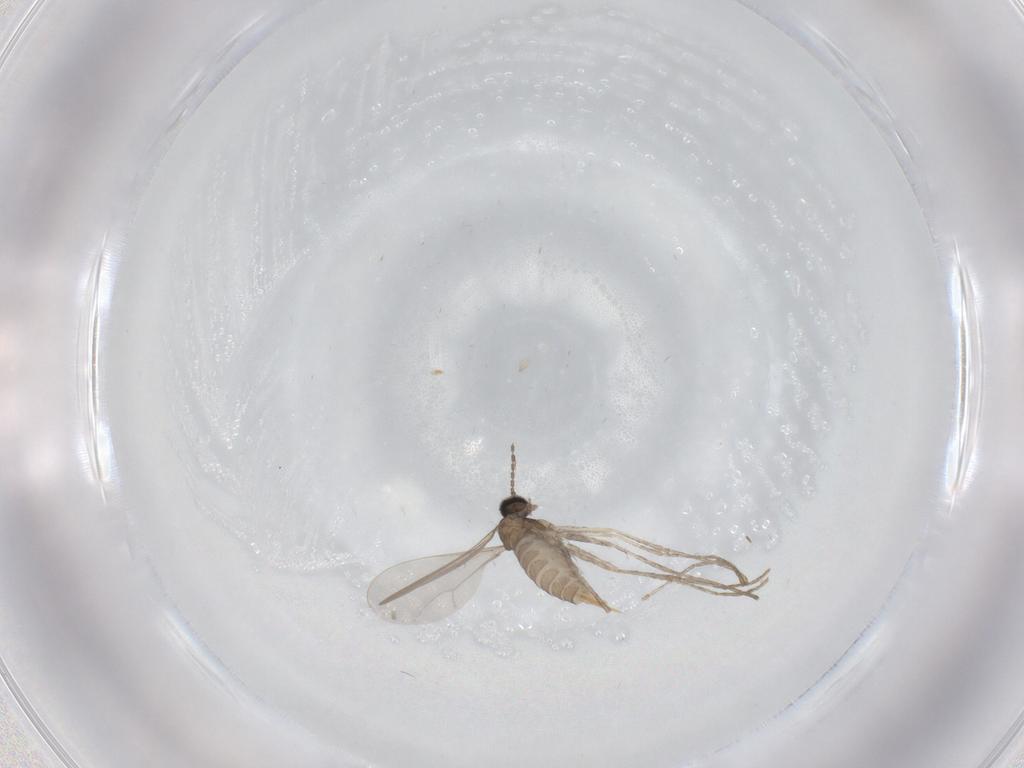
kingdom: Animalia
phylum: Arthropoda
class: Insecta
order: Diptera
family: Cecidomyiidae
